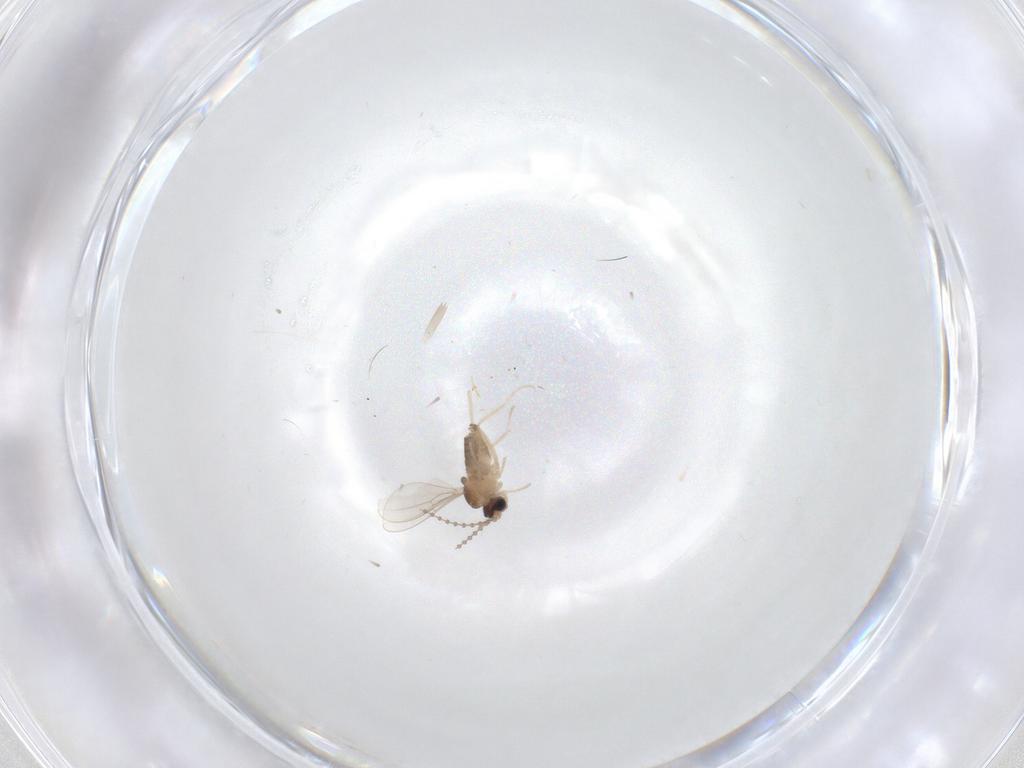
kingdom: Animalia
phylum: Arthropoda
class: Insecta
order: Diptera
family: Cecidomyiidae
